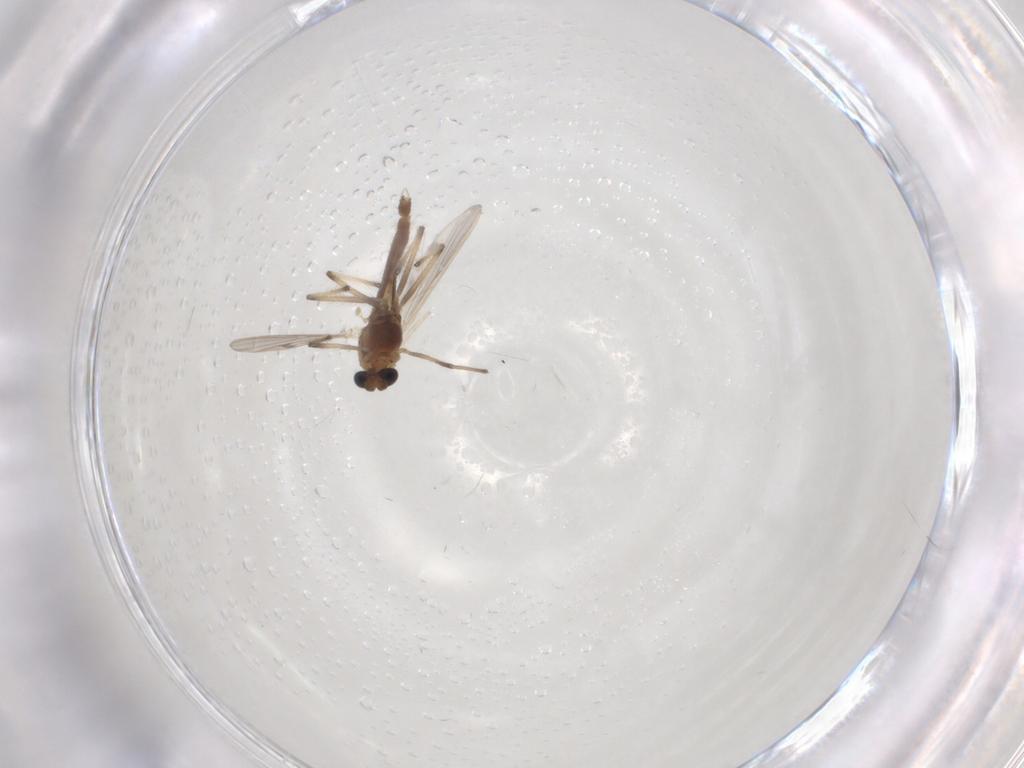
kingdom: Animalia
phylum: Arthropoda
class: Insecta
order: Diptera
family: Chironomidae
